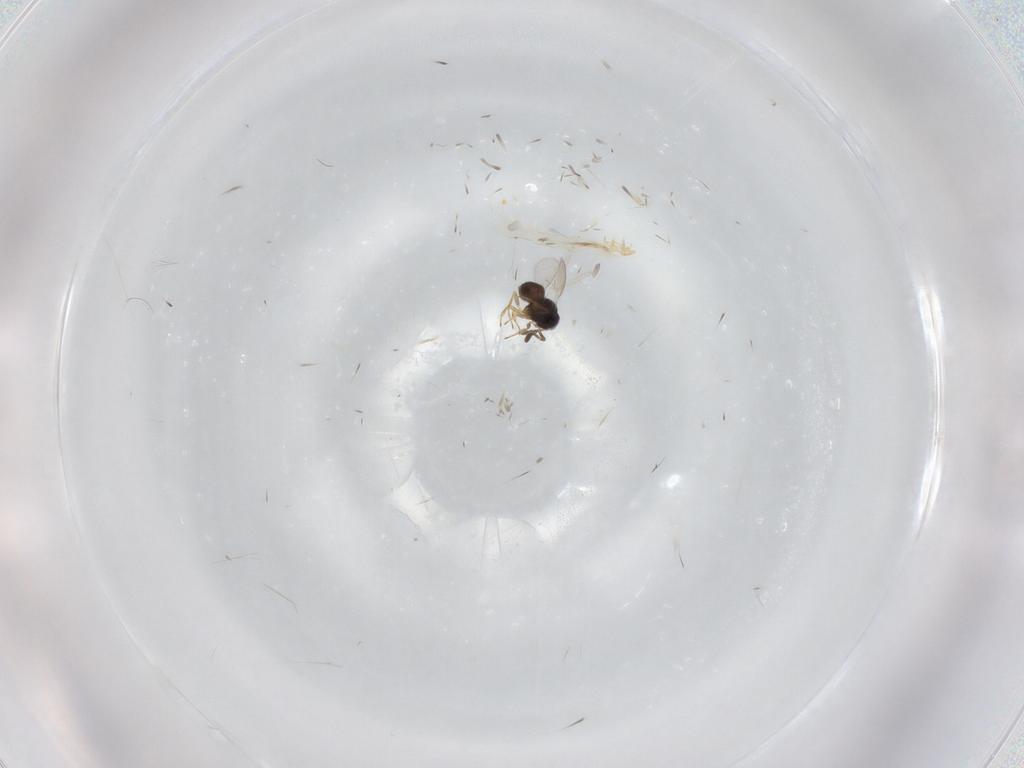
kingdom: Animalia
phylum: Arthropoda
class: Insecta
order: Hymenoptera
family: Scelionidae
